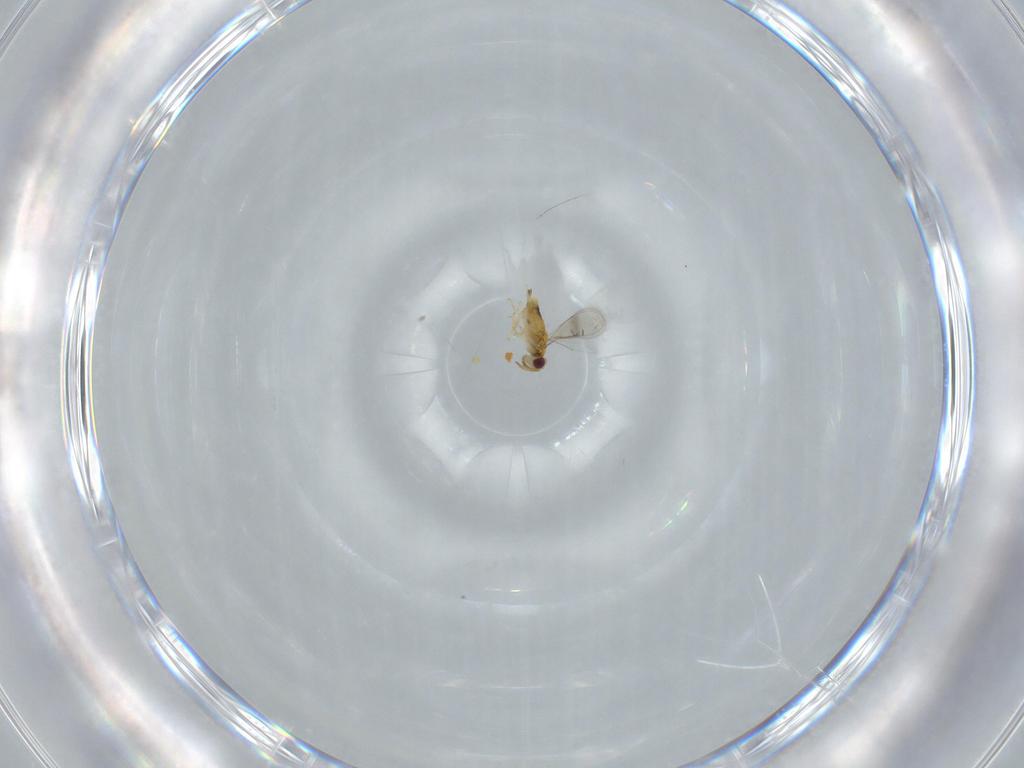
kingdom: Animalia
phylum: Arthropoda
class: Insecta
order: Hymenoptera
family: Aphelinidae
